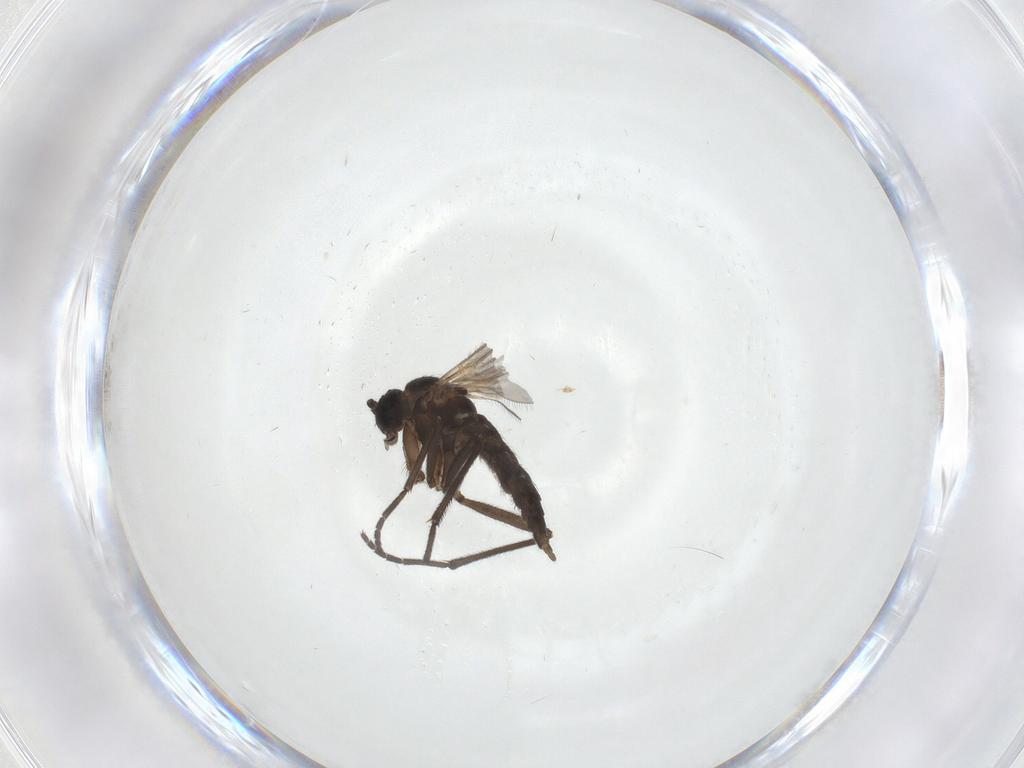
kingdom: Animalia
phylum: Arthropoda
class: Insecta
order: Diptera
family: Sciaridae
